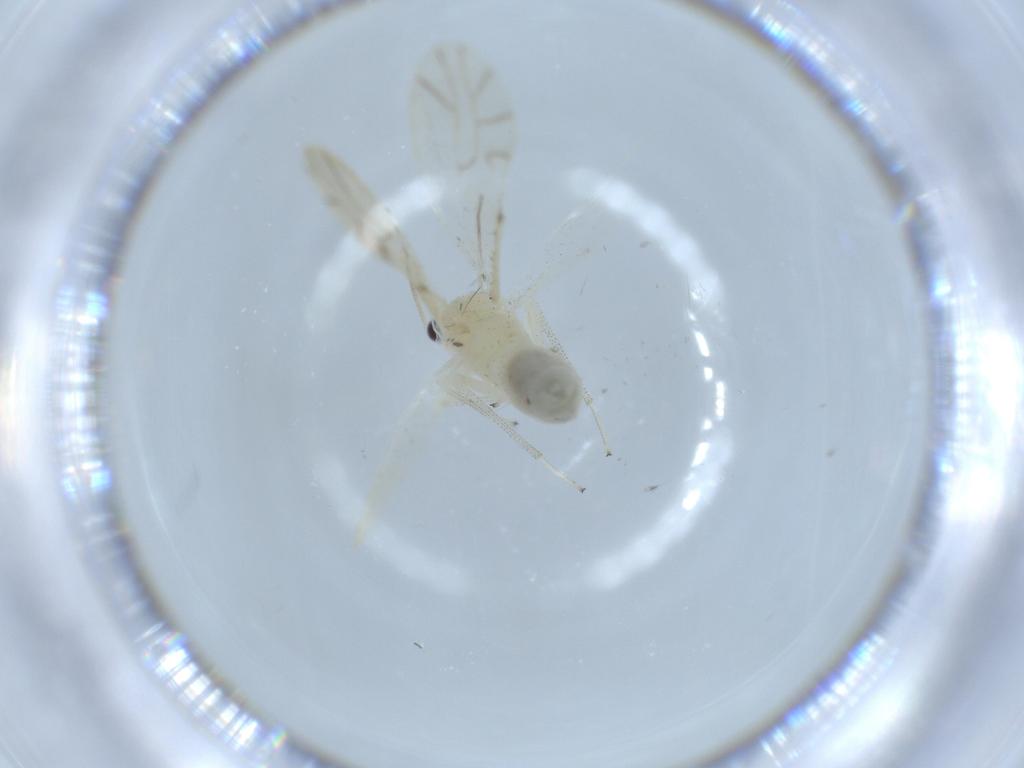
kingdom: Animalia
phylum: Arthropoda
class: Insecta
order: Psocodea
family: Caeciliusidae
